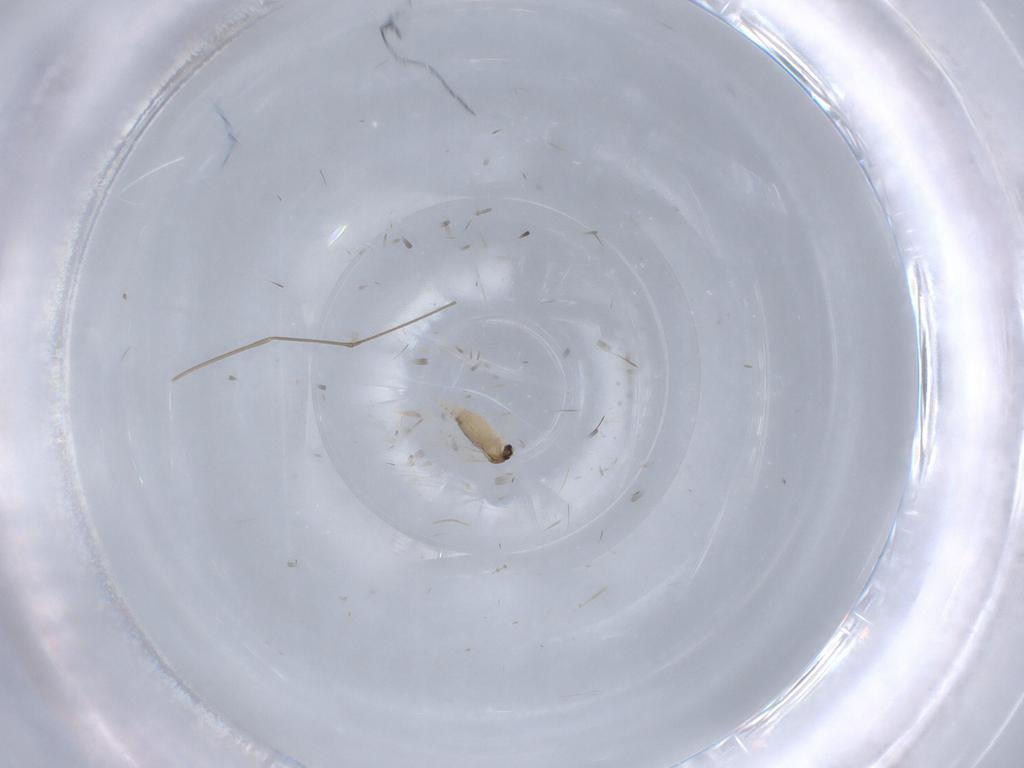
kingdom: Animalia
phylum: Arthropoda
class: Insecta
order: Diptera
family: Cecidomyiidae
